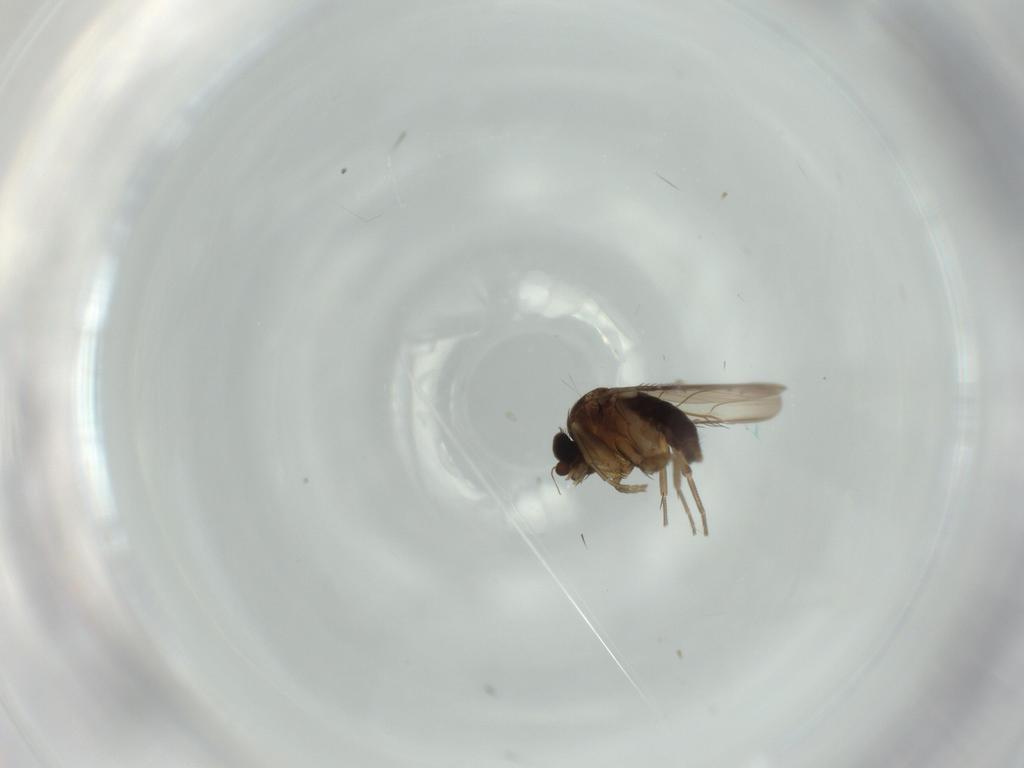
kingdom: Animalia
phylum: Arthropoda
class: Insecta
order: Diptera
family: Phoridae
